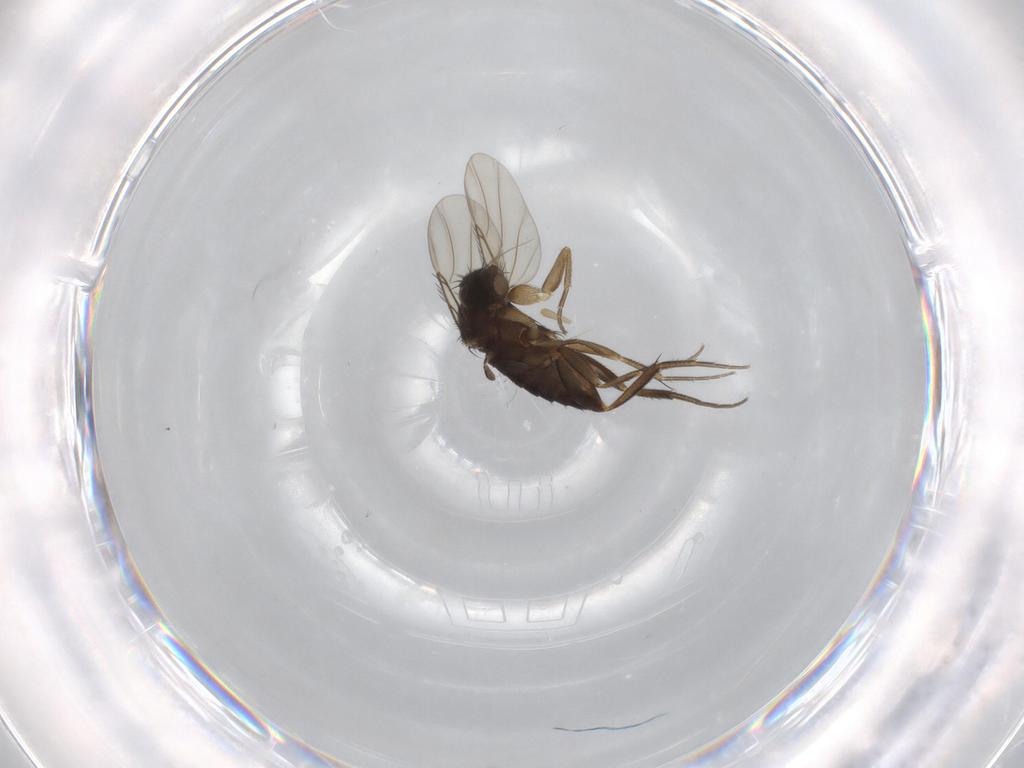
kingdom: Animalia
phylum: Arthropoda
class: Insecta
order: Diptera
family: Phoridae
